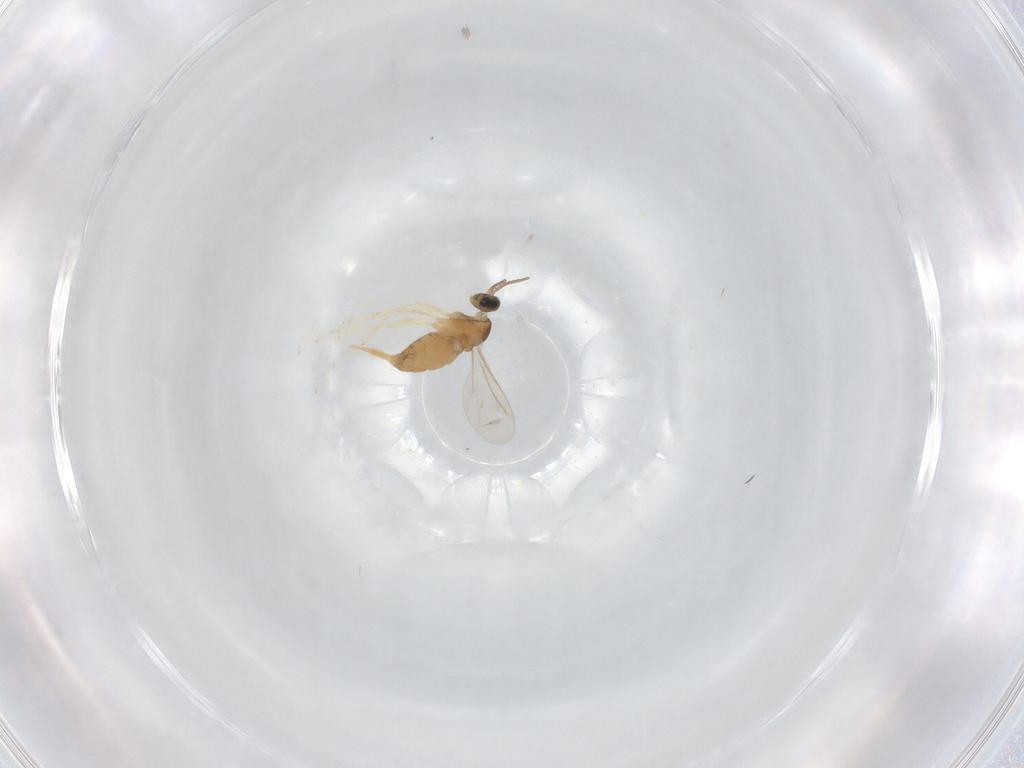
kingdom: Animalia
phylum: Arthropoda
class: Insecta
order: Diptera
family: Cecidomyiidae
